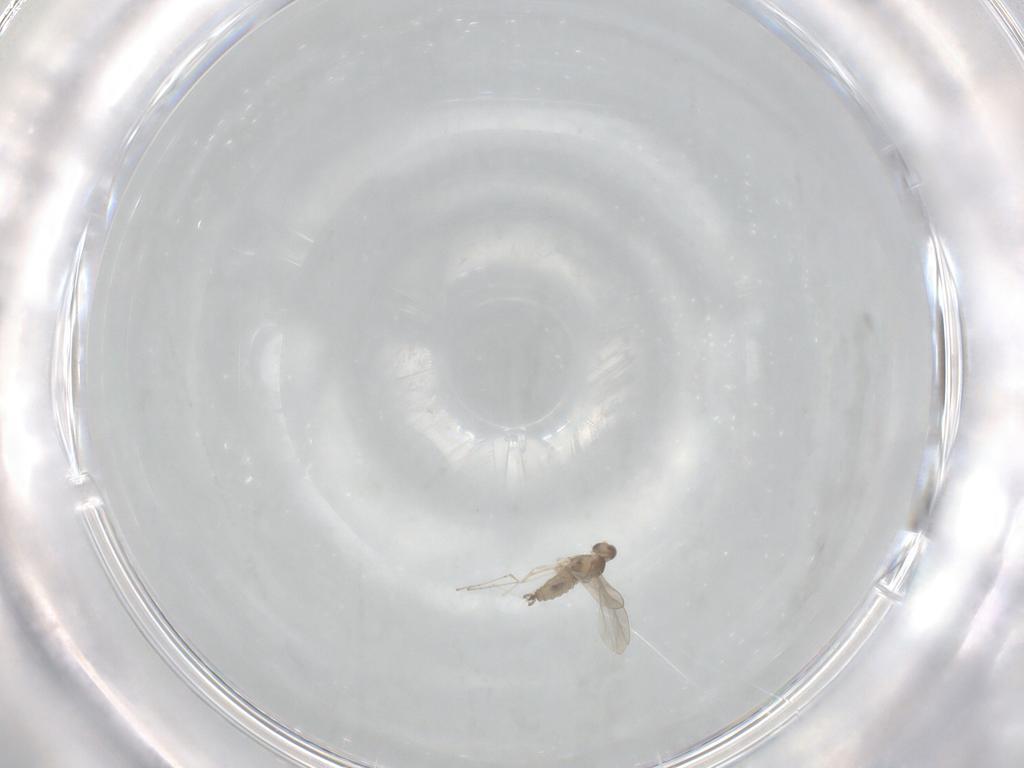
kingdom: Animalia
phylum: Arthropoda
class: Insecta
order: Diptera
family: Cecidomyiidae
